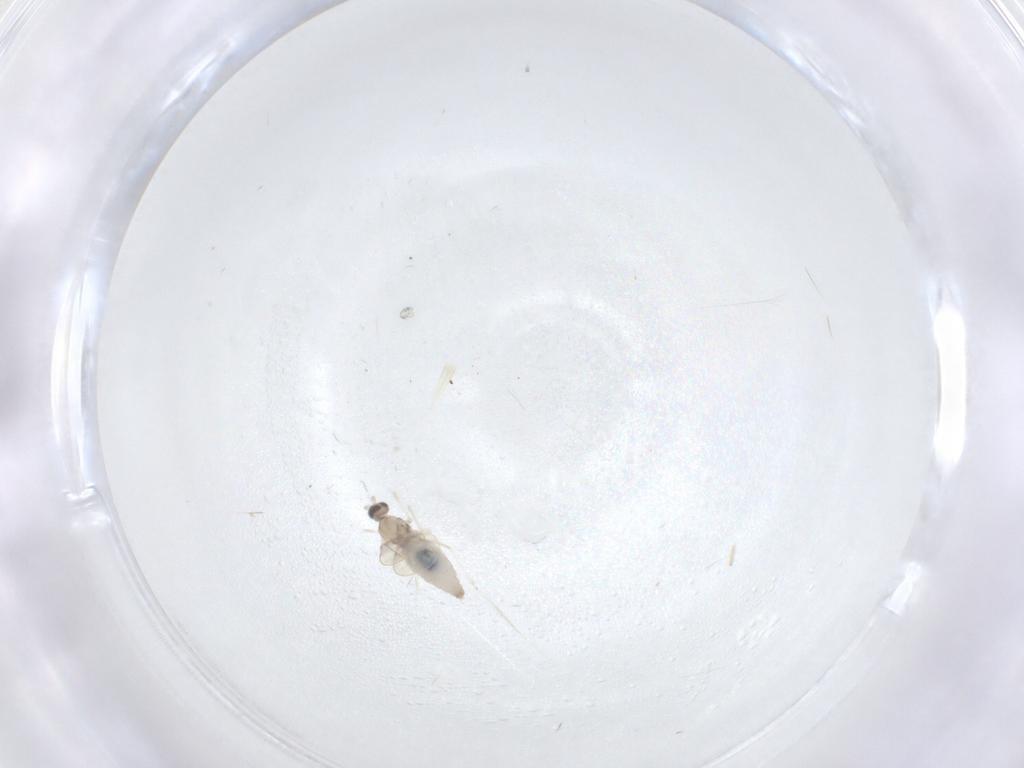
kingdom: Animalia
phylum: Arthropoda
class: Insecta
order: Diptera
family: Cecidomyiidae
